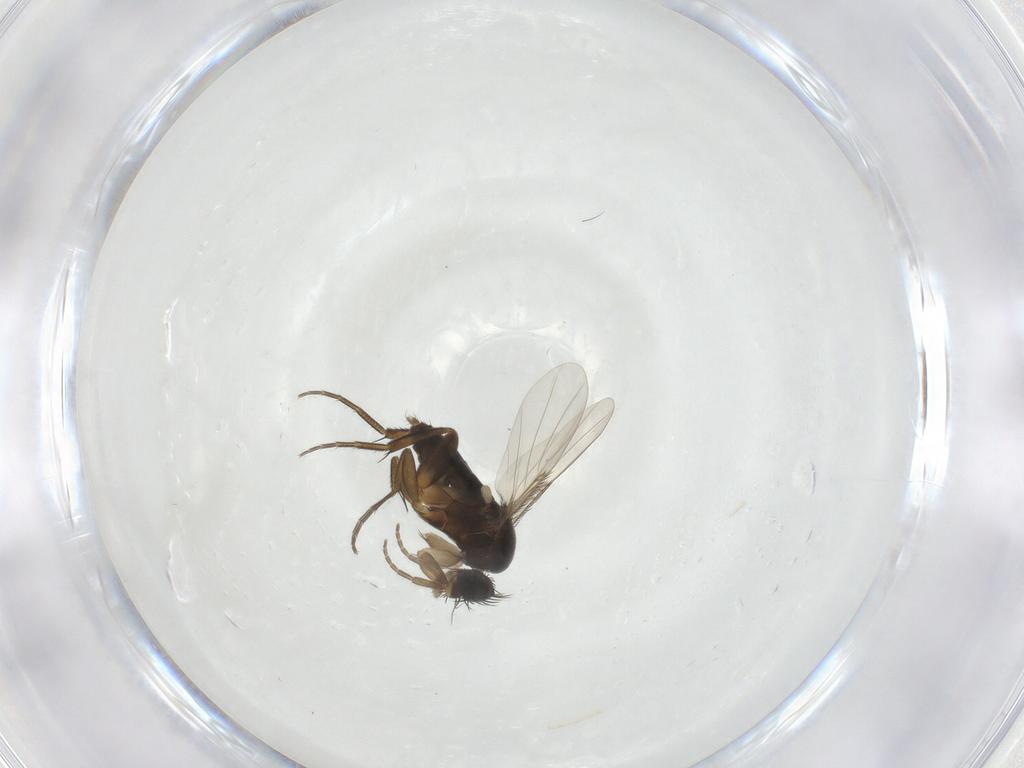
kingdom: Animalia
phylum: Arthropoda
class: Insecta
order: Diptera
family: Phoridae
